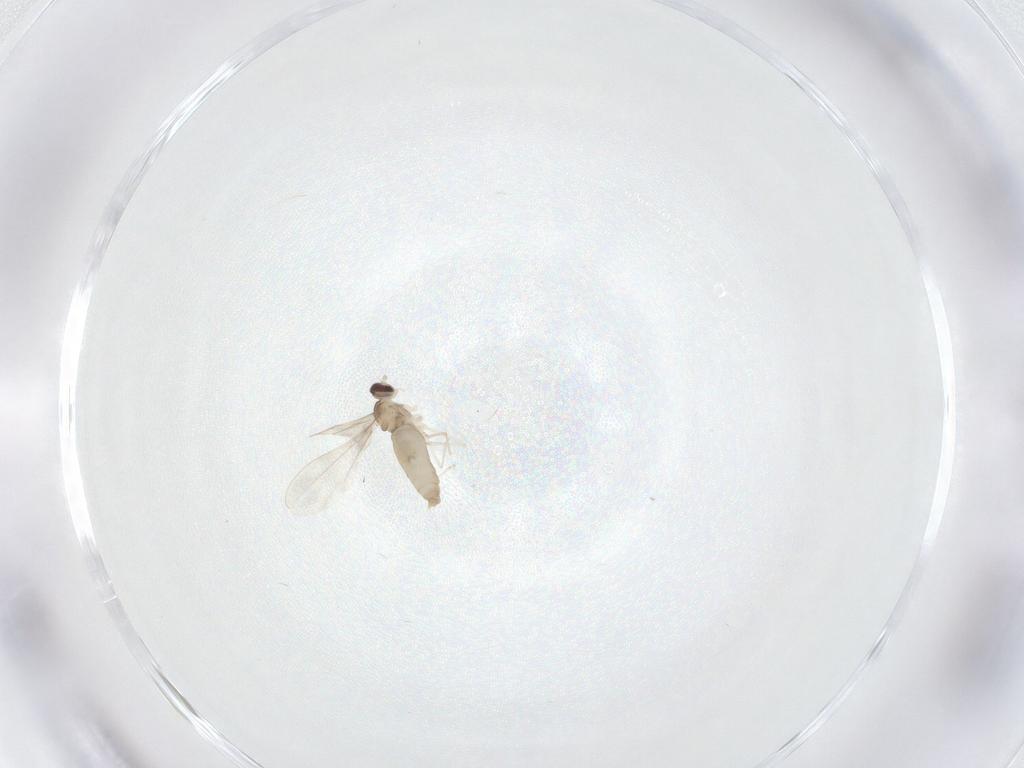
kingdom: Animalia
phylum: Arthropoda
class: Insecta
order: Diptera
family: Cecidomyiidae
